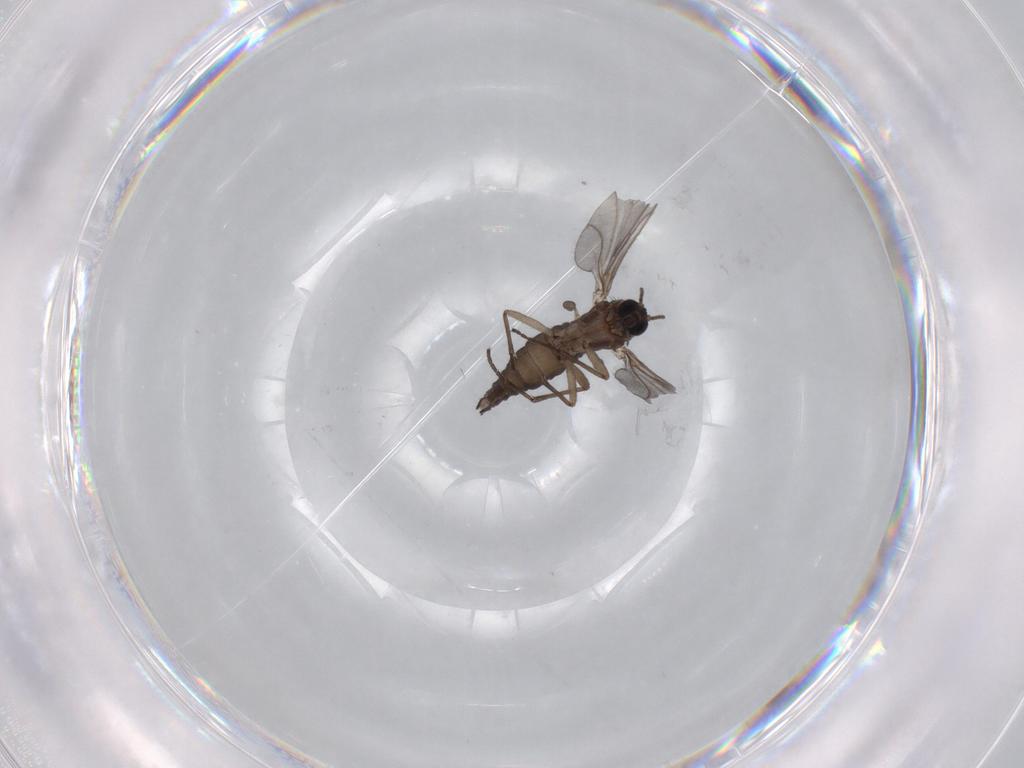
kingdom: Animalia
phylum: Arthropoda
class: Insecta
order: Diptera
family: Sciaridae
